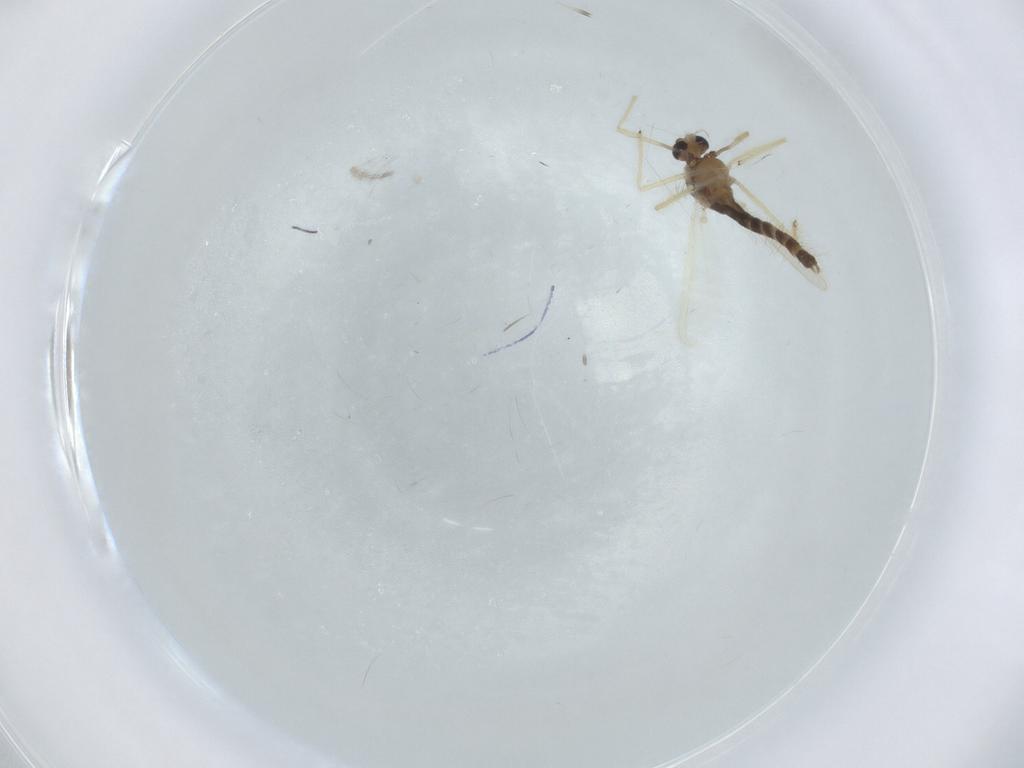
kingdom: Animalia
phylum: Arthropoda
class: Insecta
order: Diptera
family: Chironomidae
